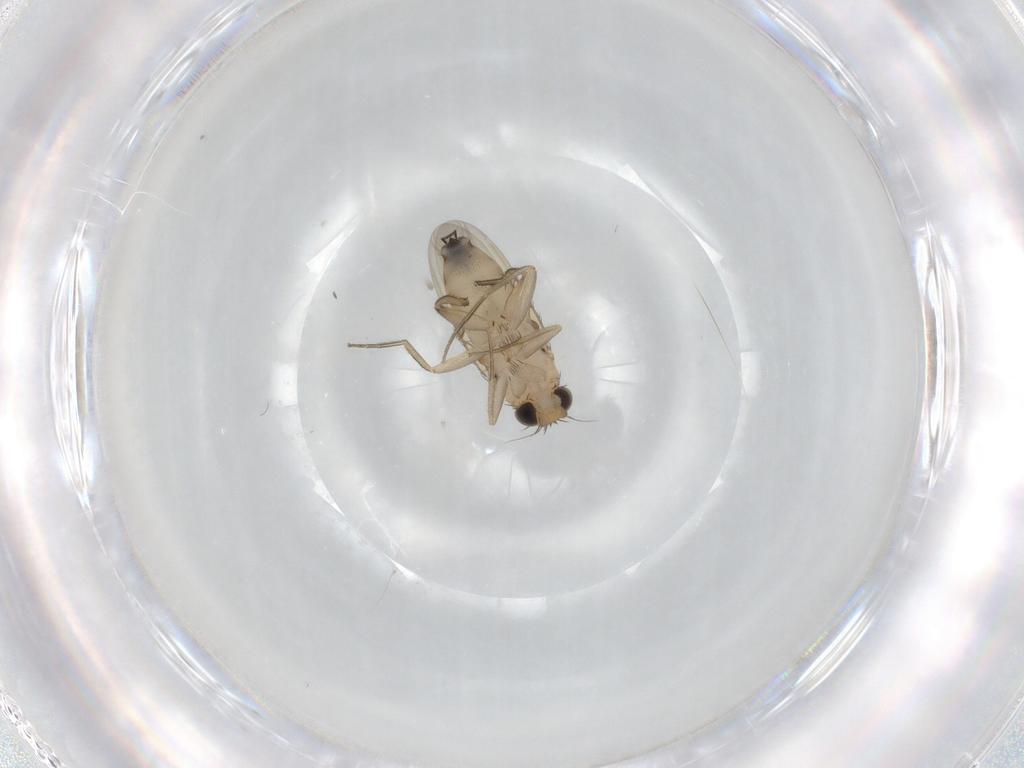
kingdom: Animalia
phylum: Arthropoda
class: Insecta
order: Diptera
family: Phoridae
